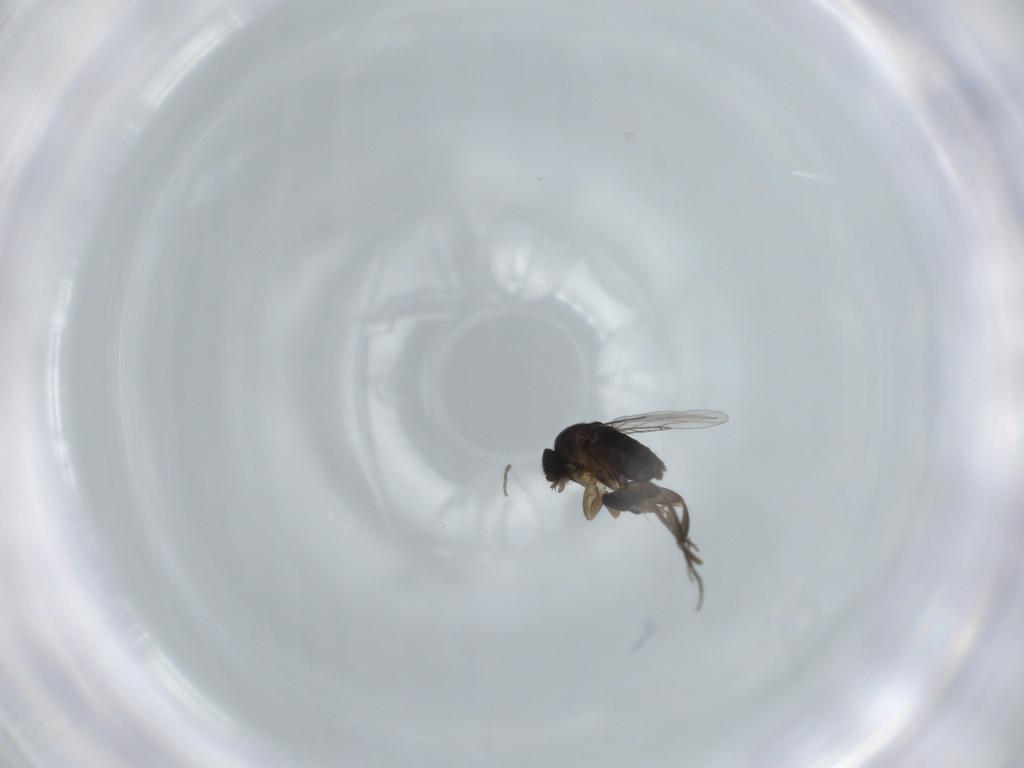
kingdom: Animalia
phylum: Arthropoda
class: Insecta
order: Diptera
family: Phoridae
